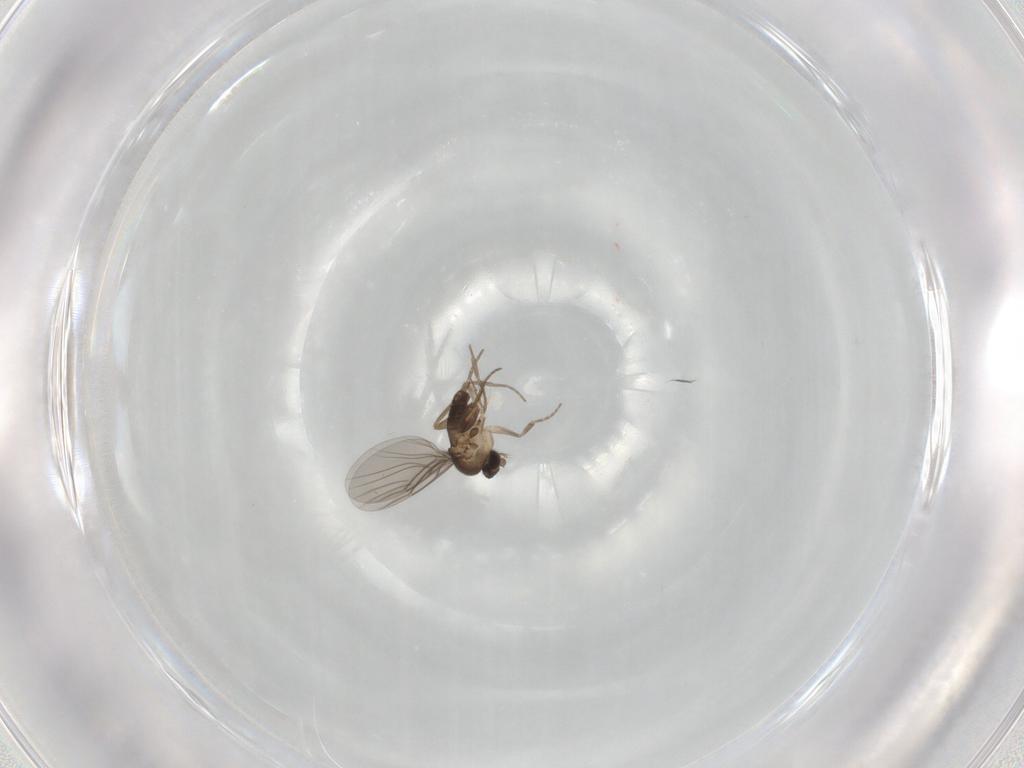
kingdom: Animalia
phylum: Arthropoda
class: Insecta
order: Diptera
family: Phoridae
